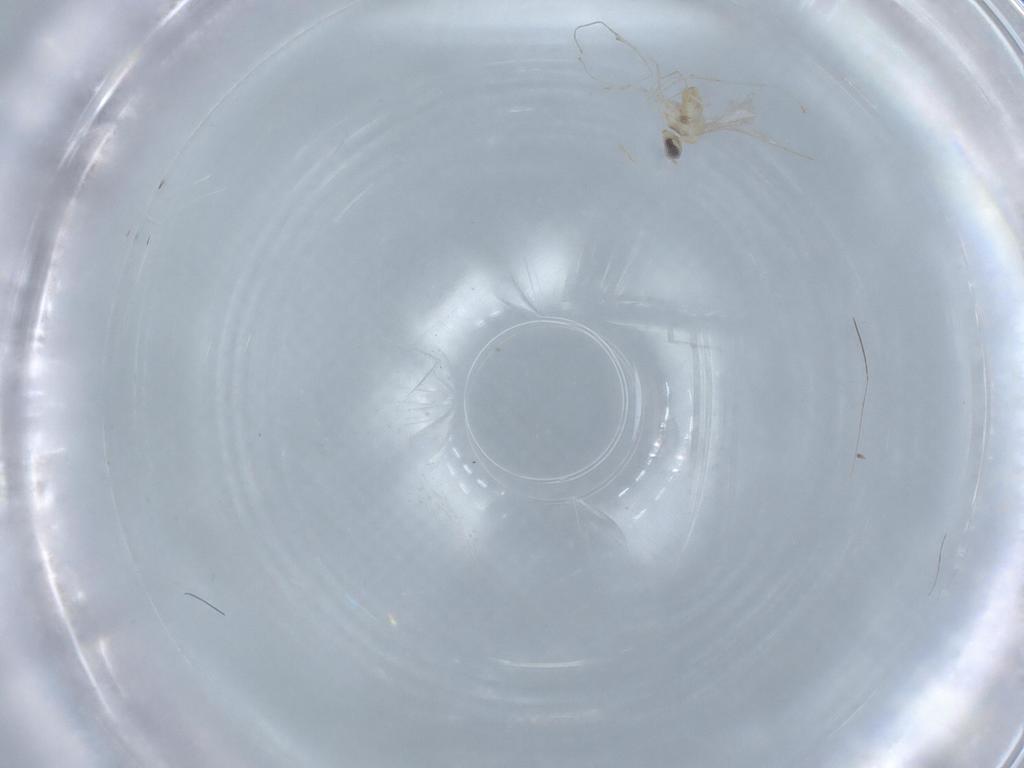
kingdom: Animalia
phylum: Arthropoda
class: Insecta
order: Diptera
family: Cecidomyiidae
